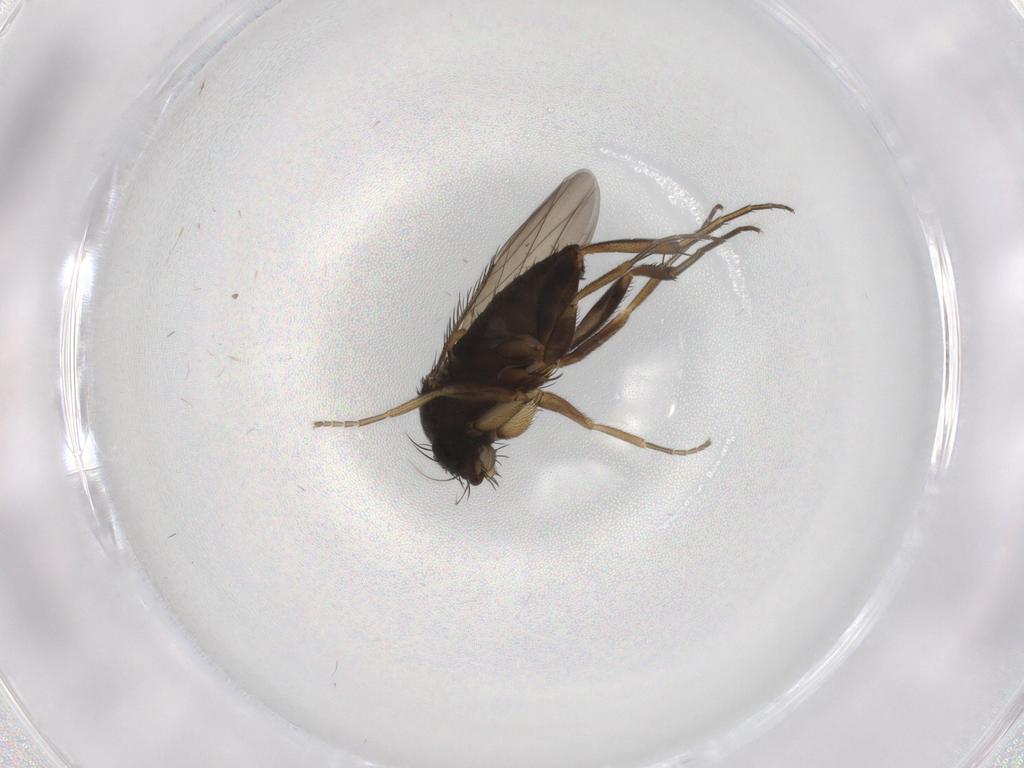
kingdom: Animalia
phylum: Arthropoda
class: Insecta
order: Diptera
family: Phoridae
